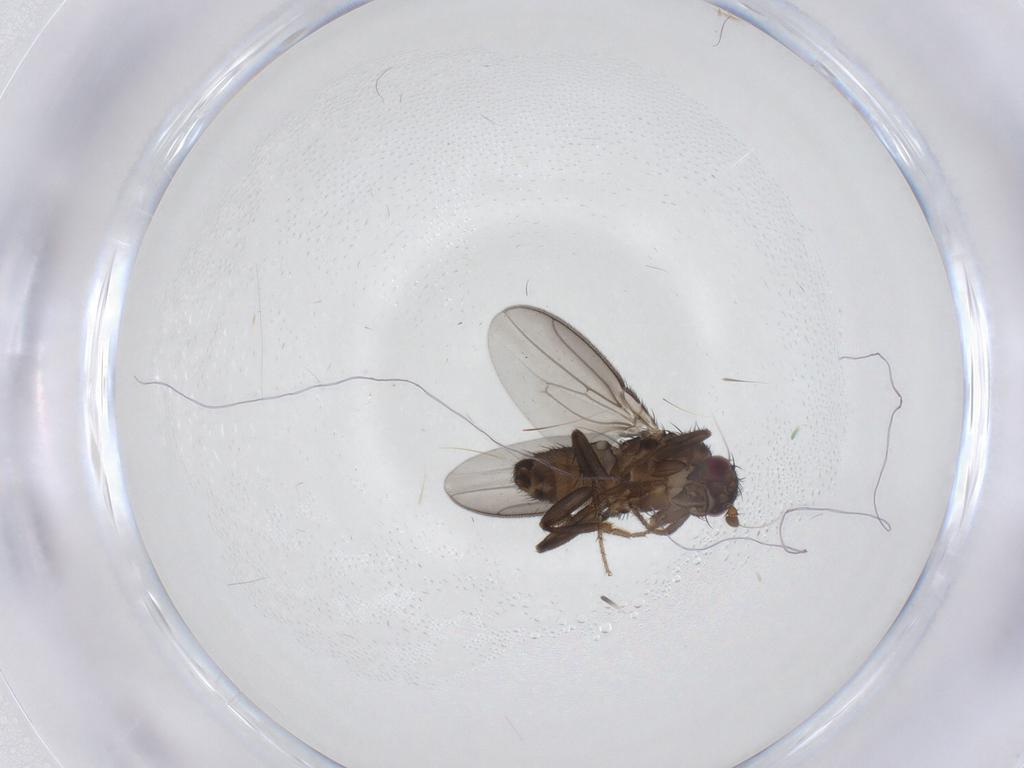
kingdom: Animalia
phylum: Arthropoda
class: Insecta
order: Diptera
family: Sphaeroceridae
